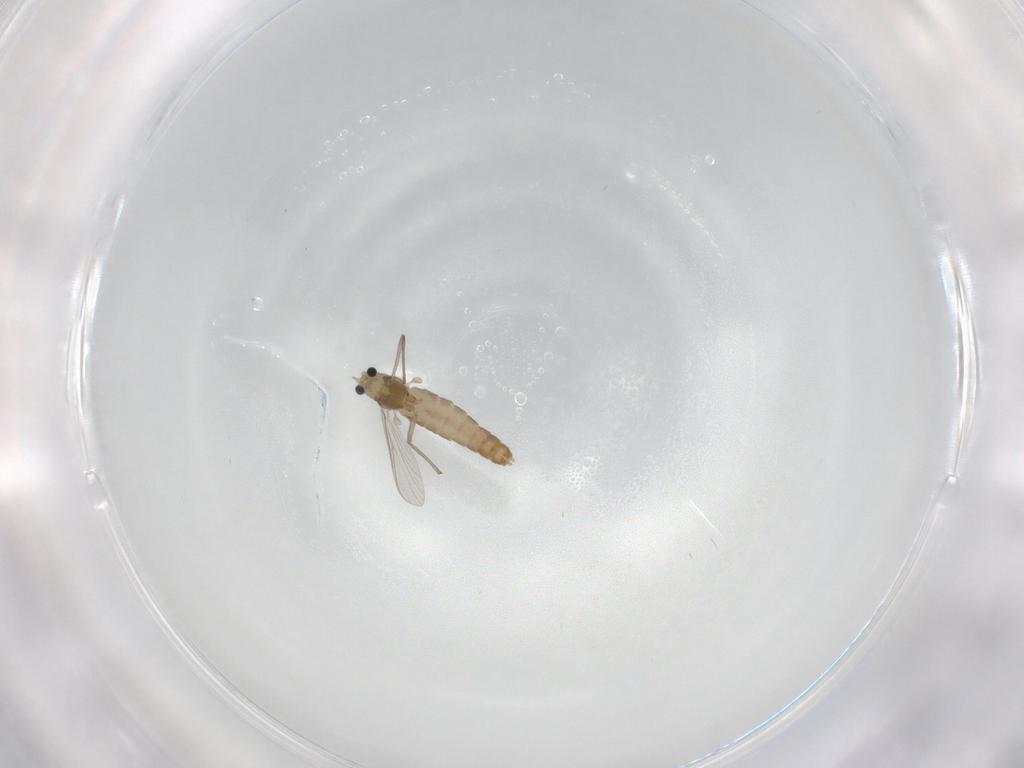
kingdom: Animalia
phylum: Arthropoda
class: Insecta
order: Diptera
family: Chironomidae
